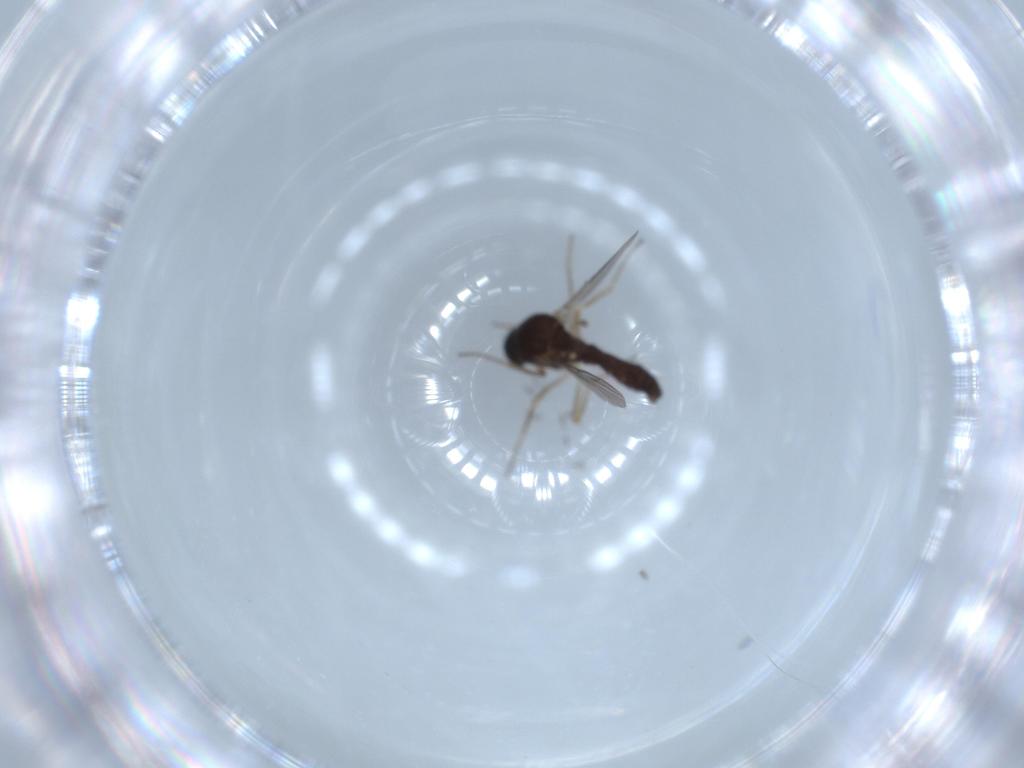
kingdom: Animalia
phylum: Arthropoda
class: Insecta
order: Diptera
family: Ceratopogonidae
